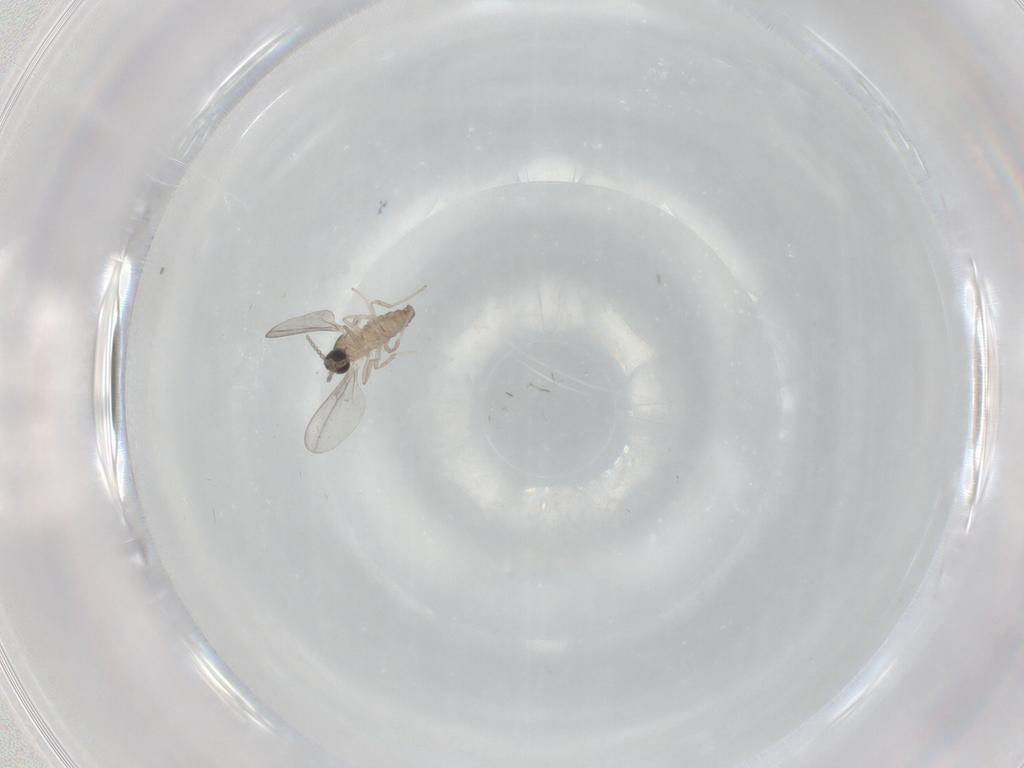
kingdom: Animalia
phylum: Arthropoda
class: Insecta
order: Diptera
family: Cecidomyiidae
